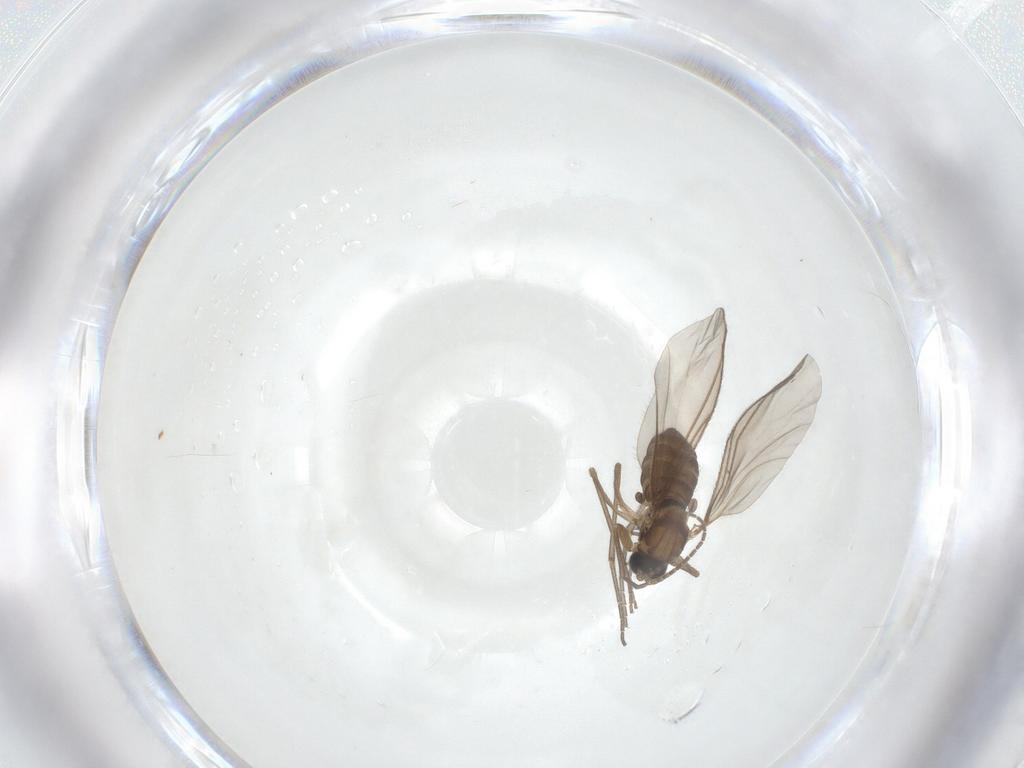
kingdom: Animalia
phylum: Arthropoda
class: Insecta
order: Diptera
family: Sciaridae
